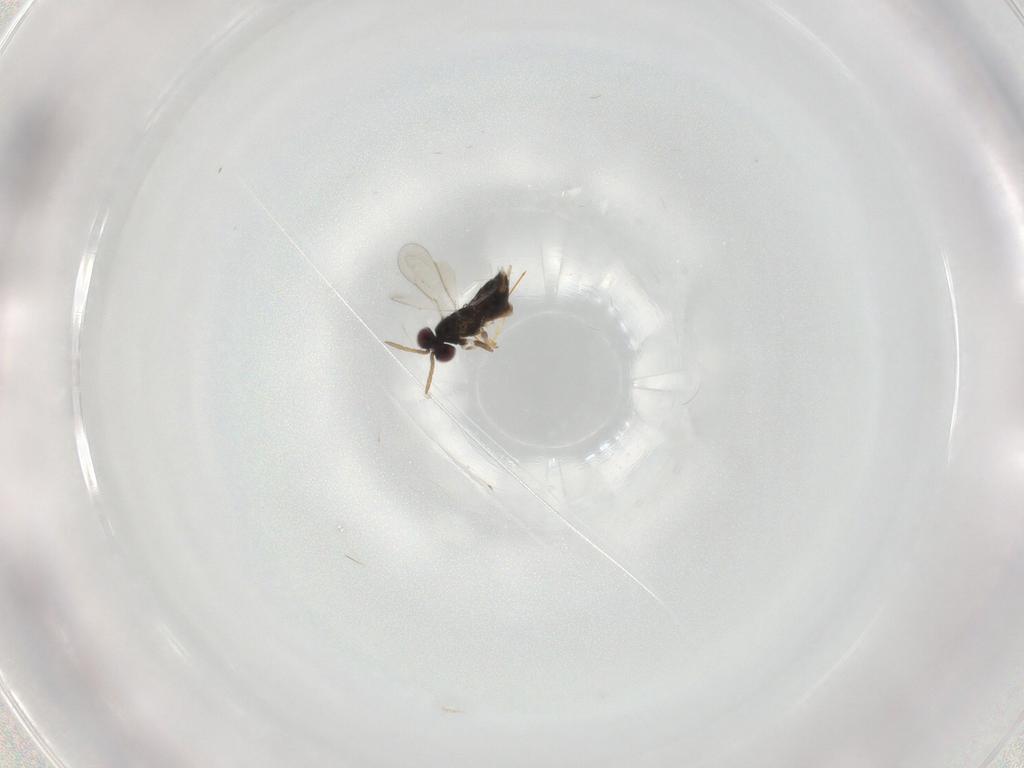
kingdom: Animalia
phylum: Arthropoda
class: Insecta
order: Hymenoptera
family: Aphelinidae
